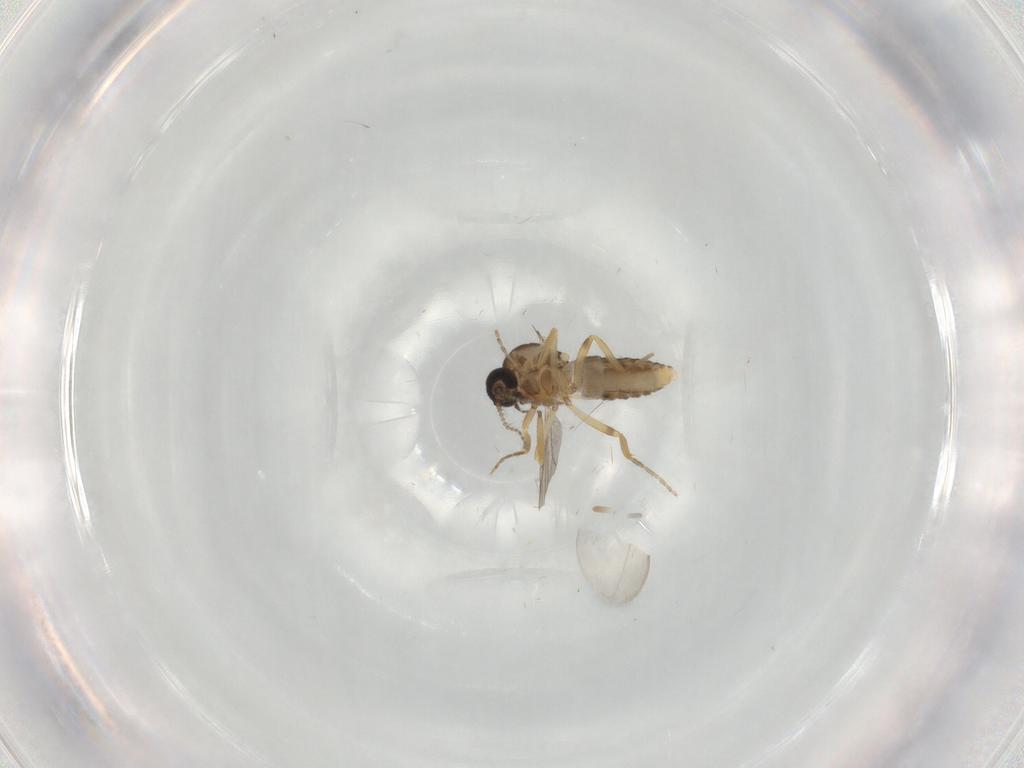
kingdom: Animalia
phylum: Arthropoda
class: Insecta
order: Diptera
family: Ceratopogonidae
